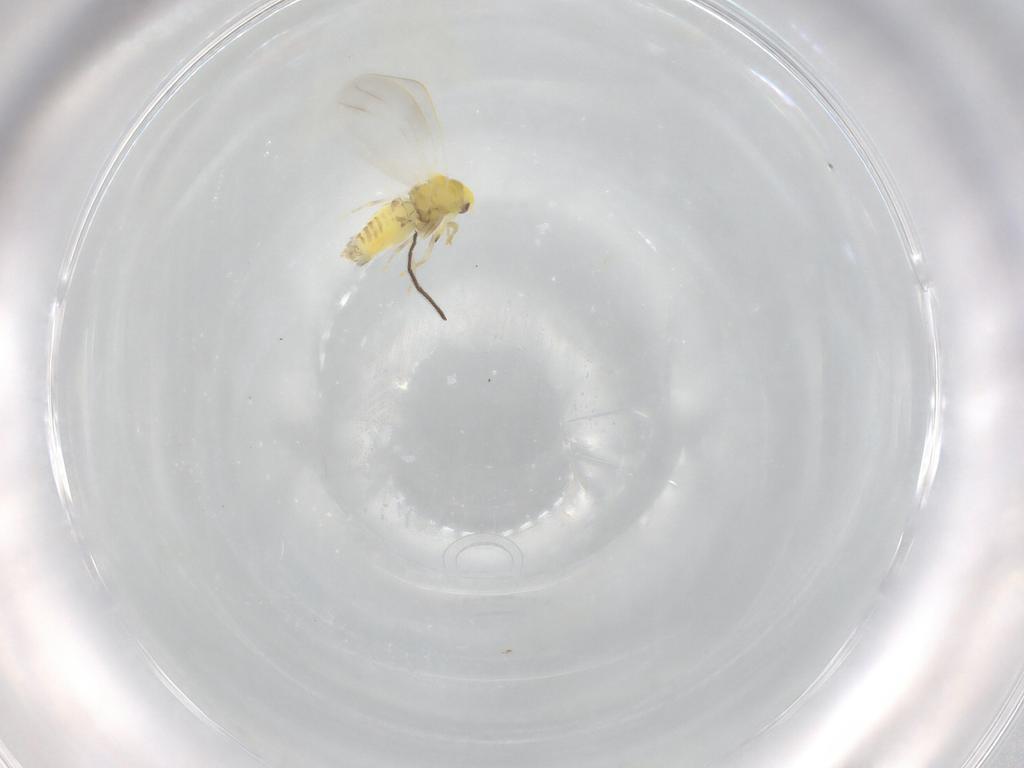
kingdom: Animalia
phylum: Arthropoda
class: Insecta
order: Hemiptera
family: Aleyrodidae
